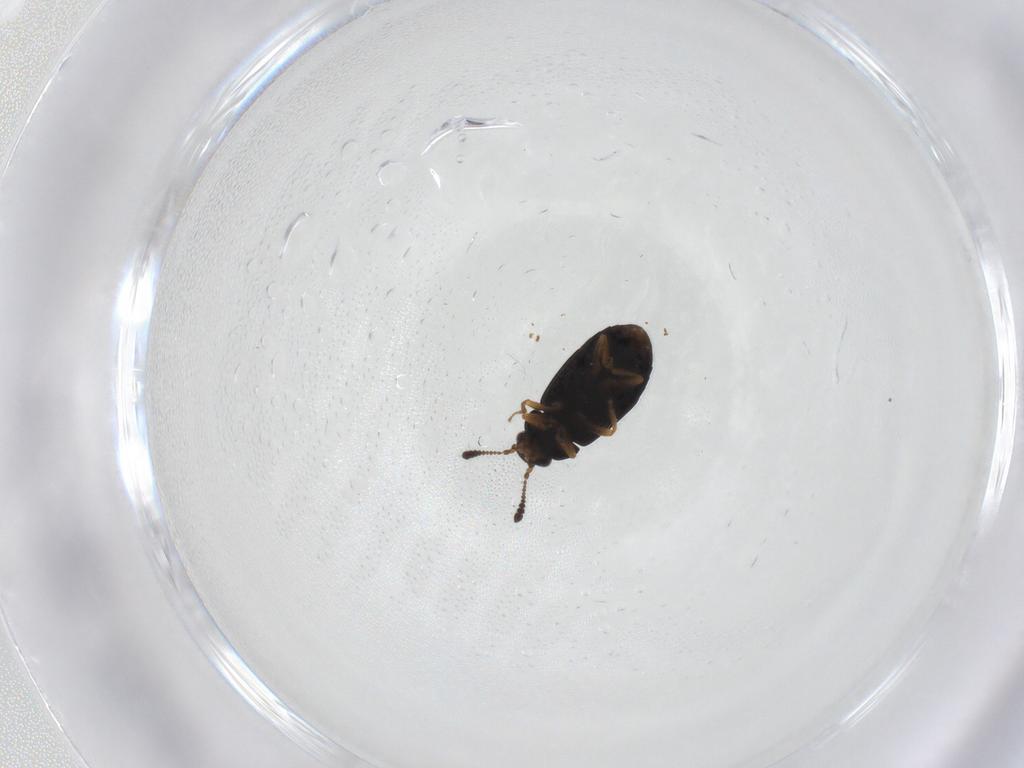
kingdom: Animalia
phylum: Arthropoda
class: Insecta
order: Coleoptera
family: Staphylinidae
